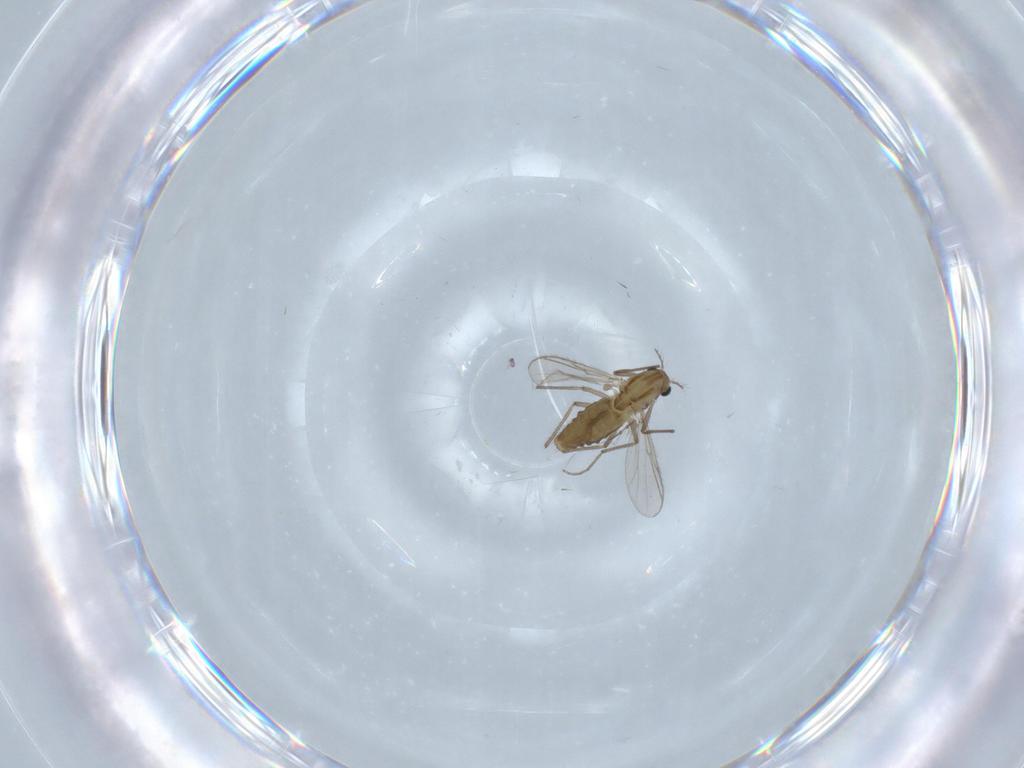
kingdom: Animalia
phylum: Arthropoda
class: Insecta
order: Diptera
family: Chironomidae
